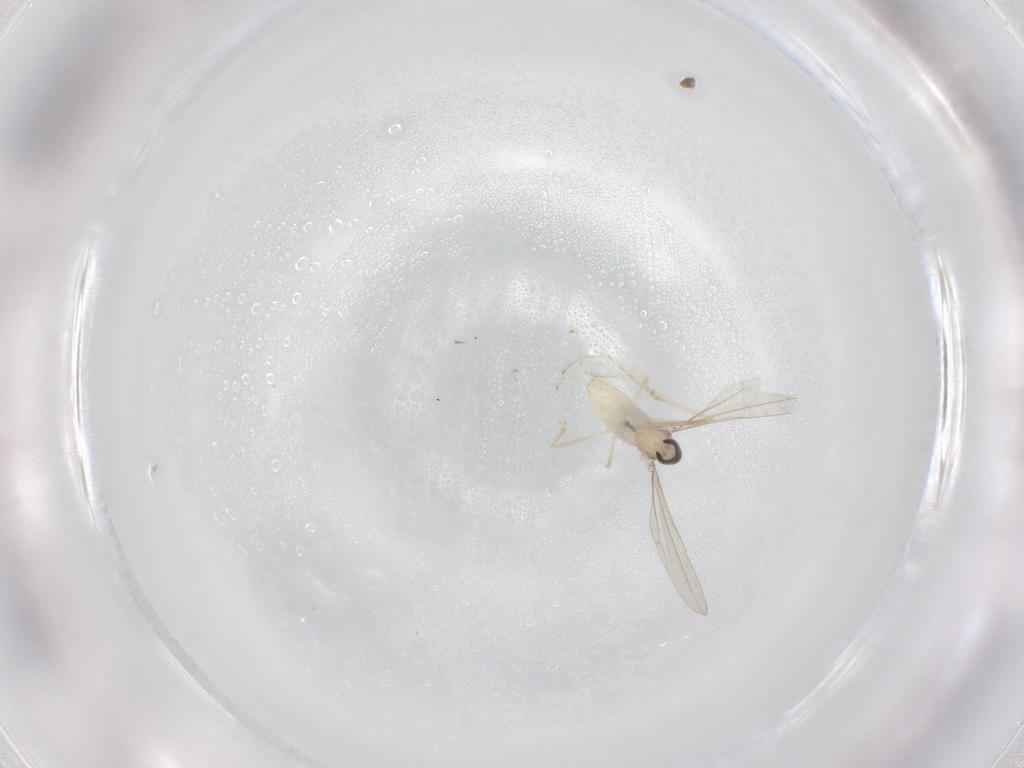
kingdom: Animalia
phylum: Arthropoda
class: Insecta
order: Diptera
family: Cecidomyiidae
